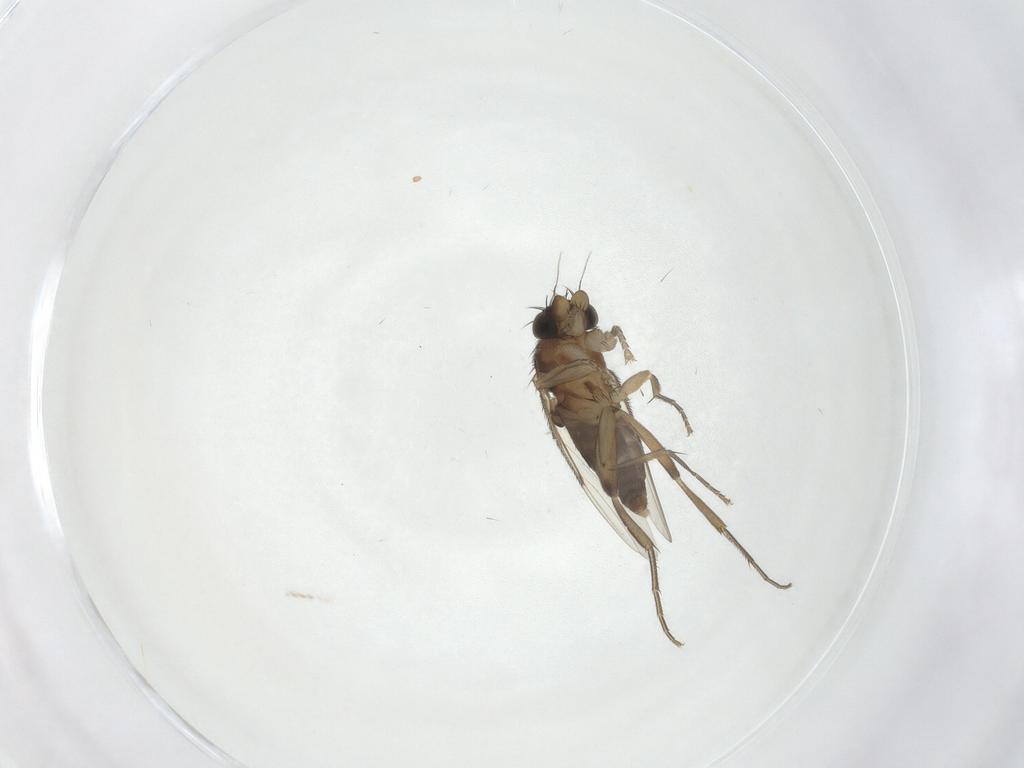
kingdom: Animalia
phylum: Arthropoda
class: Insecta
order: Diptera
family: Phoridae
